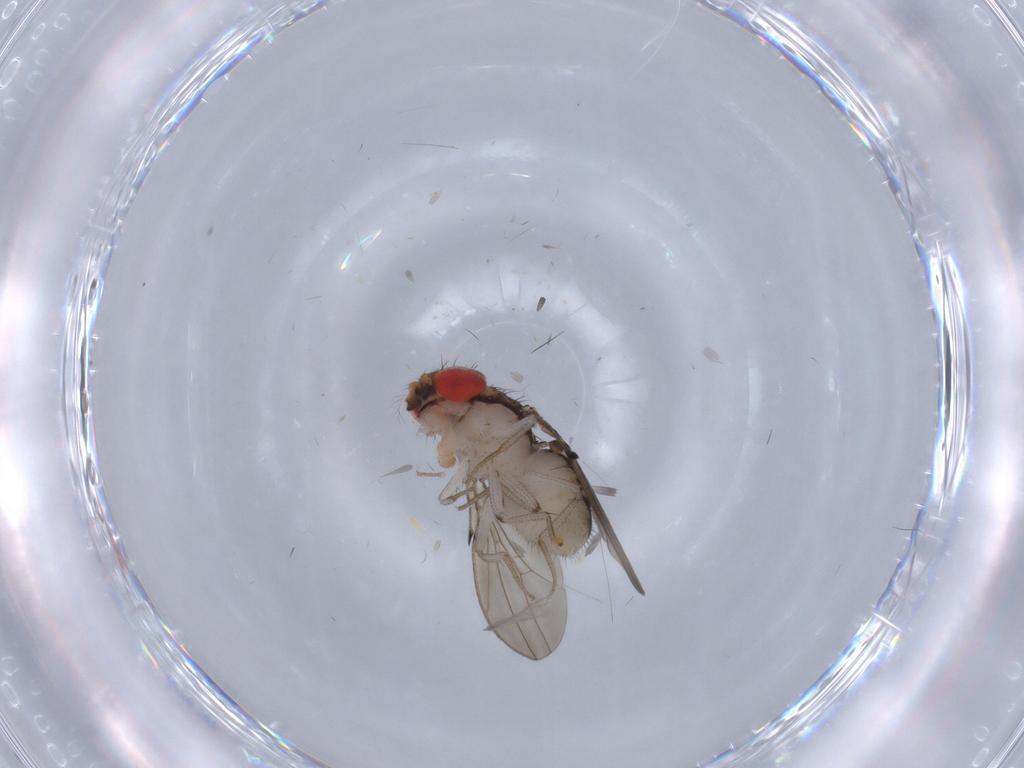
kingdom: Animalia
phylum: Arthropoda
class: Insecta
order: Diptera
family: Drosophilidae
